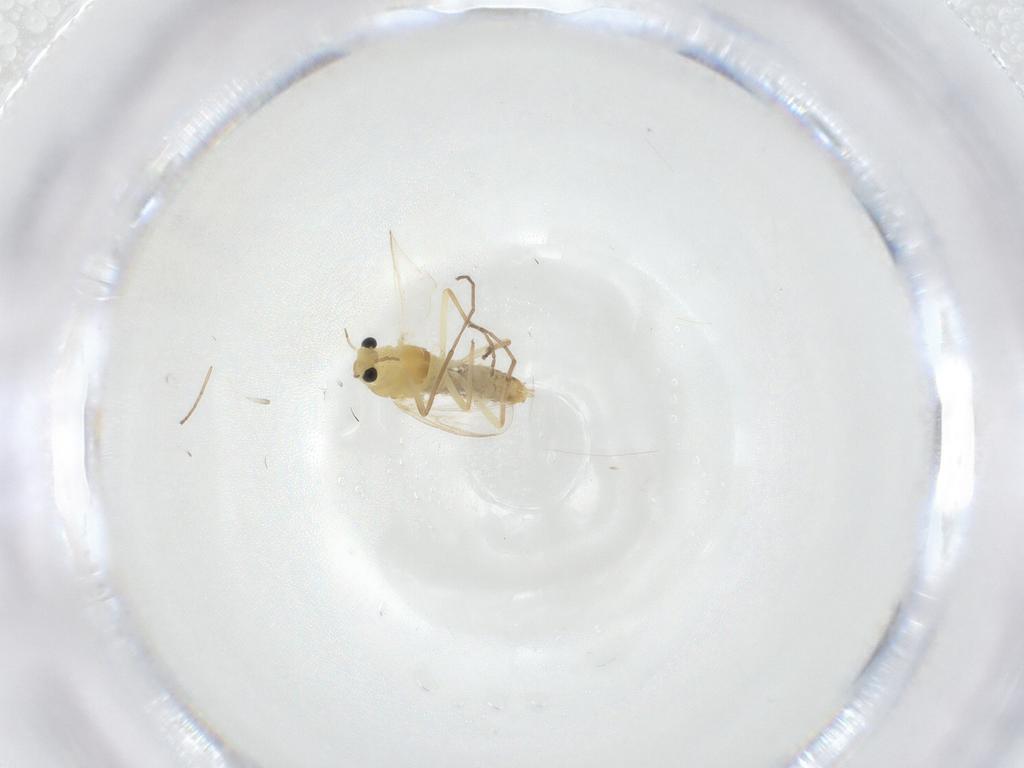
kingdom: Animalia
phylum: Arthropoda
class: Insecta
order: Diptera
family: Chironomidae
